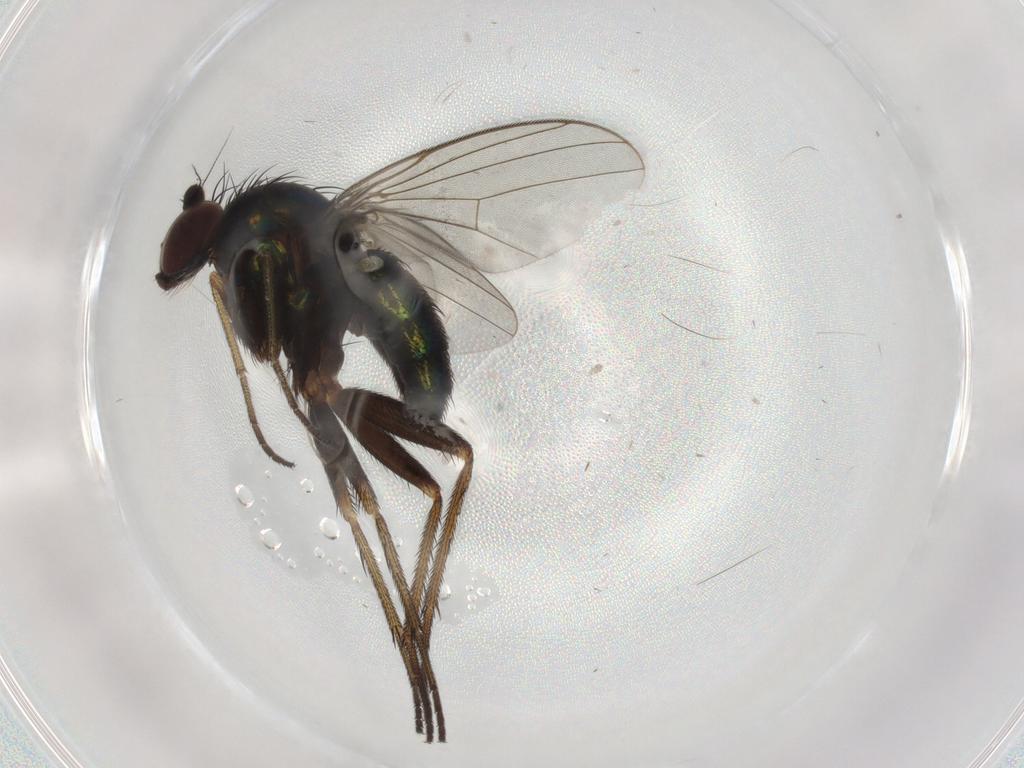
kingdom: Animalia
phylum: Arthropoda
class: Insecta
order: Diptera
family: Dolichopodidae
